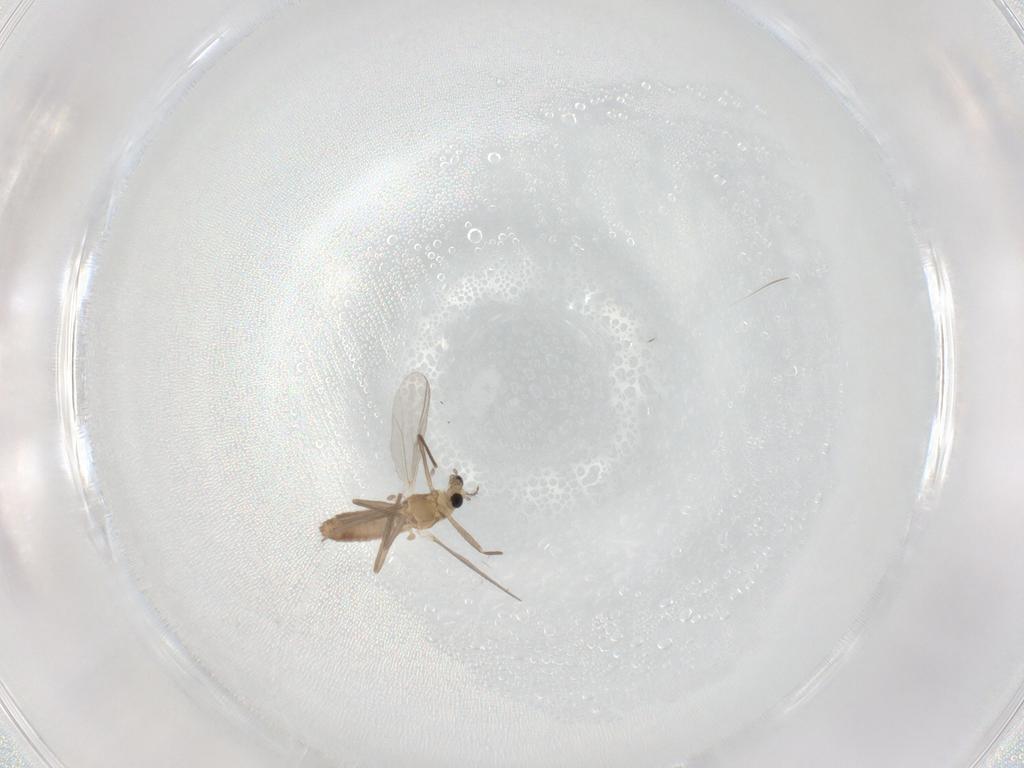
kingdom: Animalia
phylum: Arthropoda
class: Insecta
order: Diptera
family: Chironomidae
